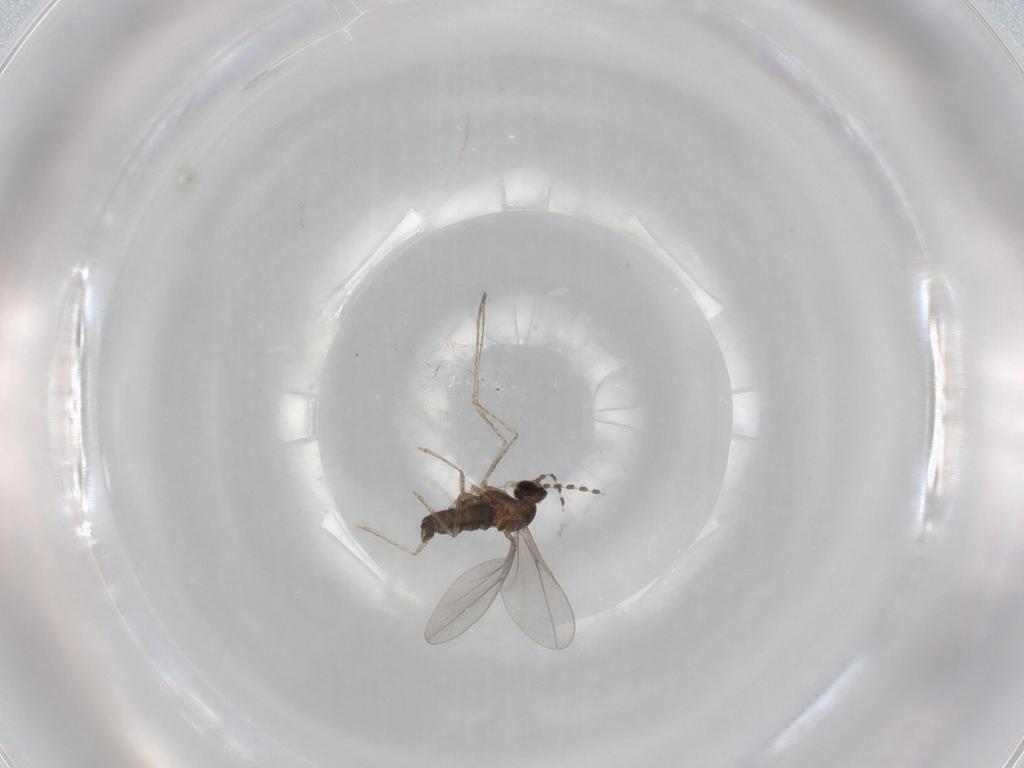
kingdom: Animalia
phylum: Arthropoda
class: Insecta
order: Diptera
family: Cecidomyiidae
